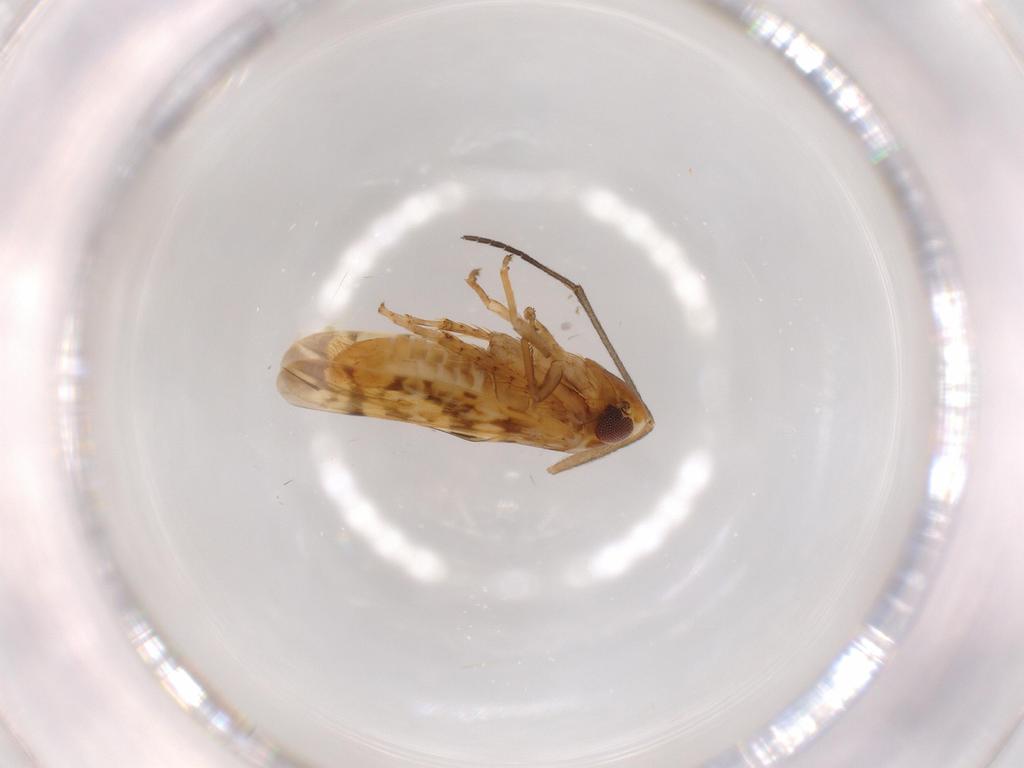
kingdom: Animalia
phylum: Arthropoda
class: Insecta
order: Hemiptera
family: Cicadellidae
